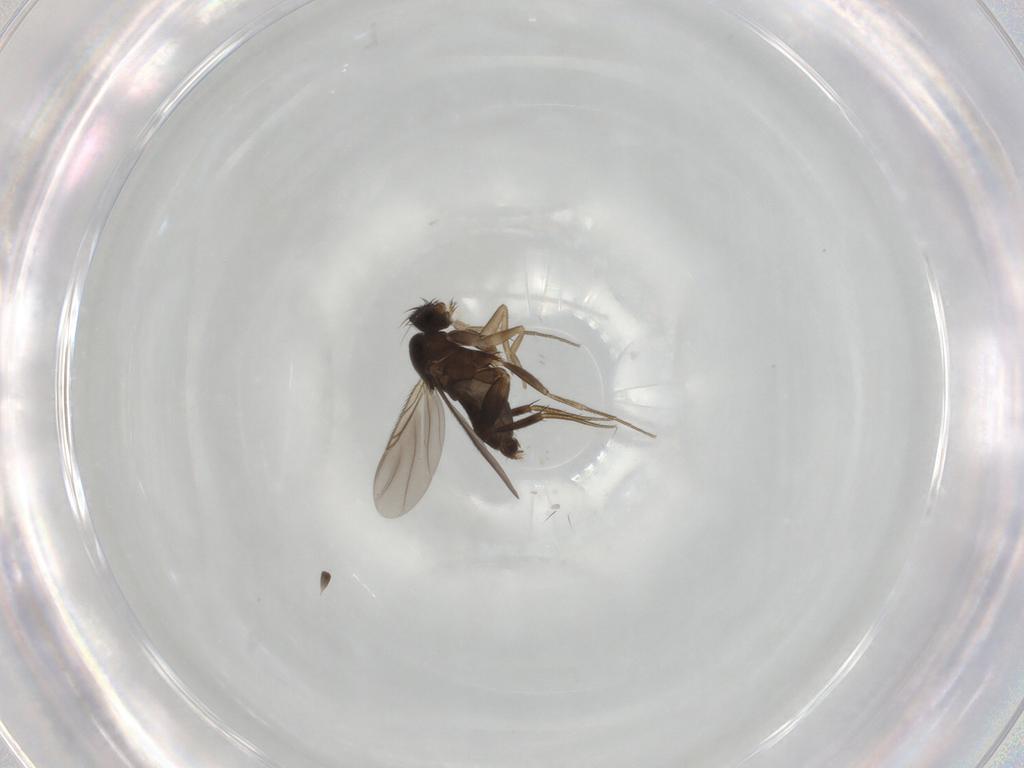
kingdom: Animalia
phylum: Arthropoda
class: Insecta
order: Diptera
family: Phoridae
